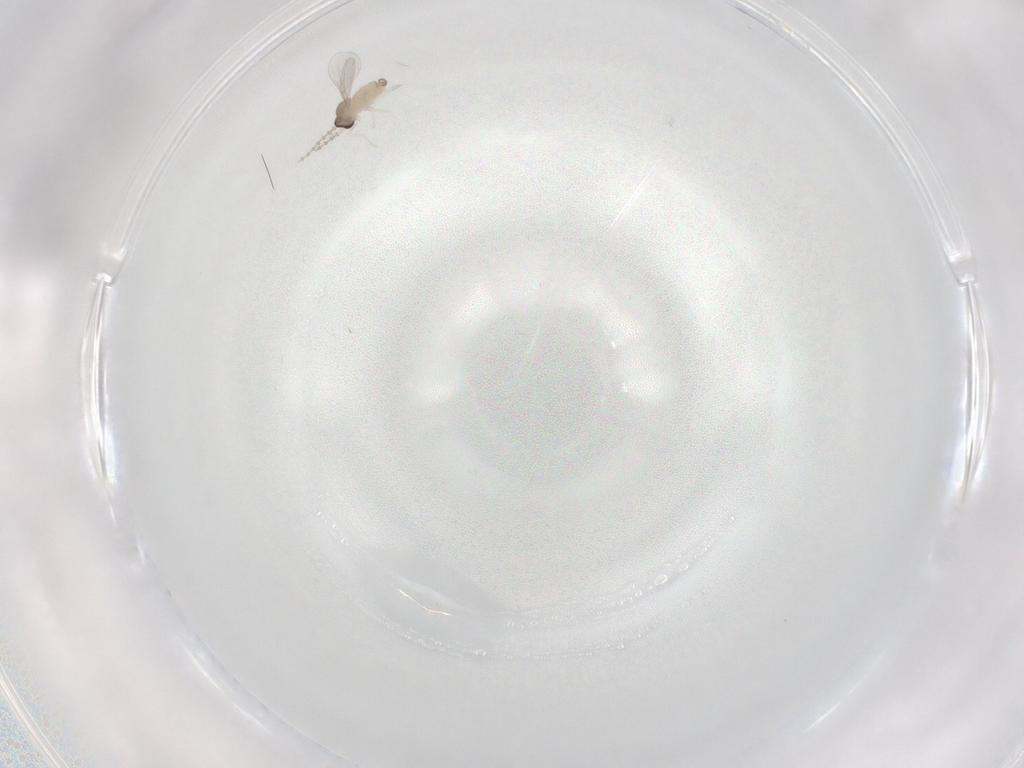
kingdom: Animalia
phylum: Arthropoda
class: Insecta
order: Diptera
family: Cecidomyiidae
